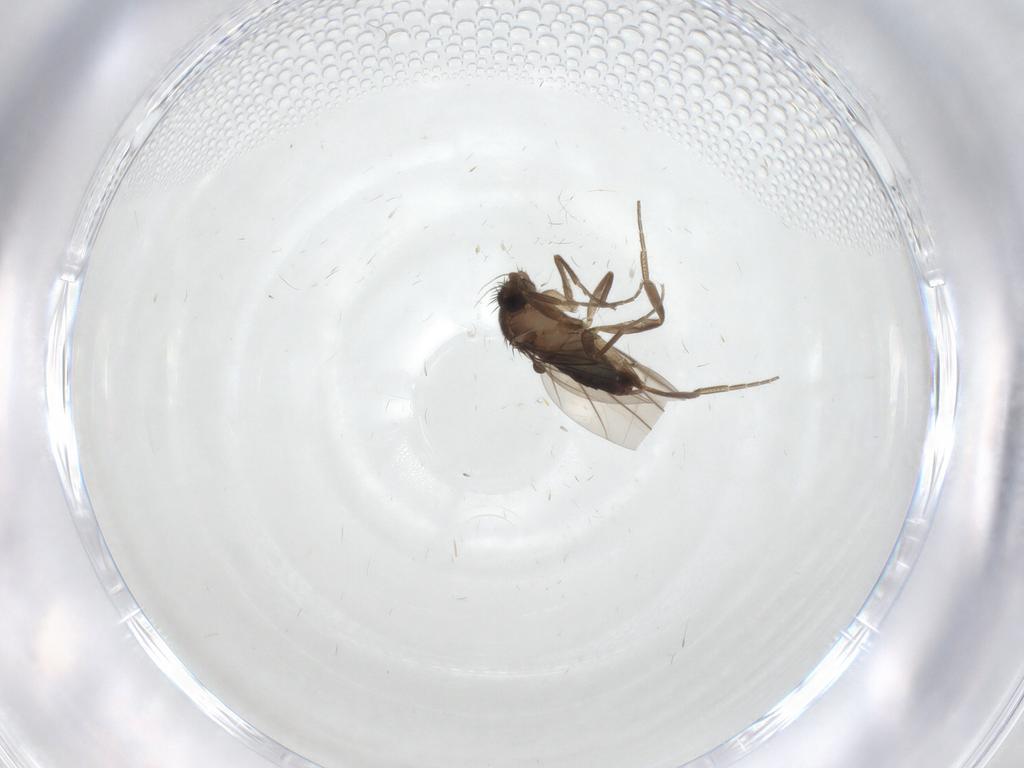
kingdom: Animalia
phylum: Arthropoda
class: Insecta
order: Diptera
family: Phoridae
